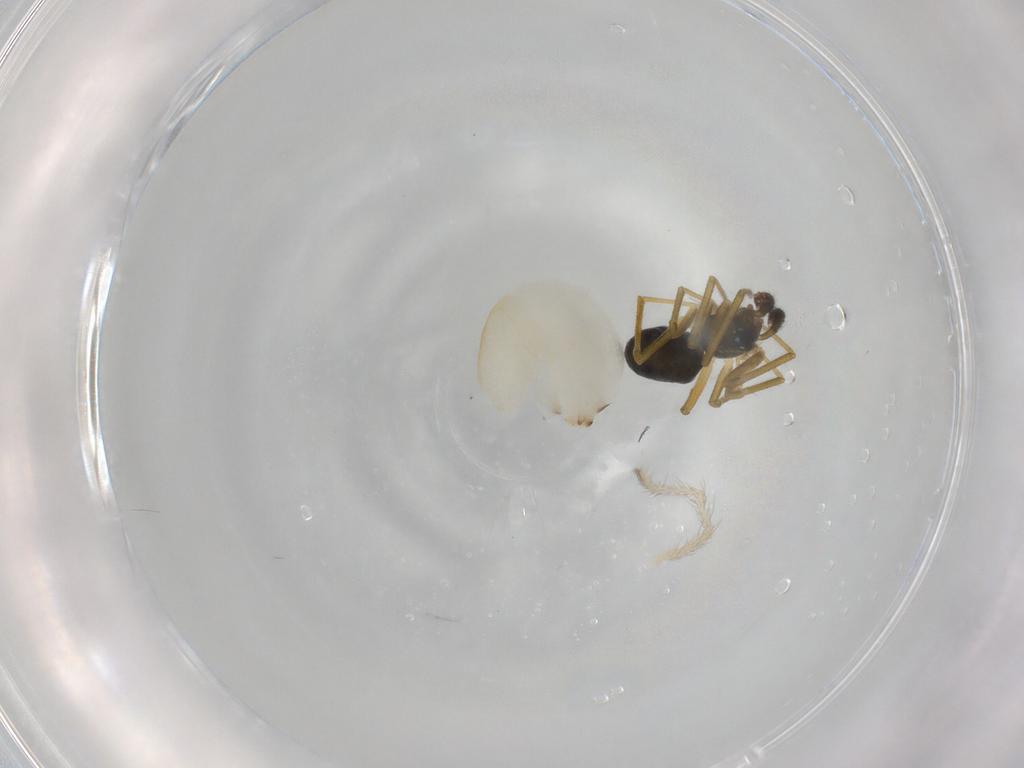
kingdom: Animalia
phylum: Arthropoda
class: Arachnida
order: Araneae
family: Linyphiidae
